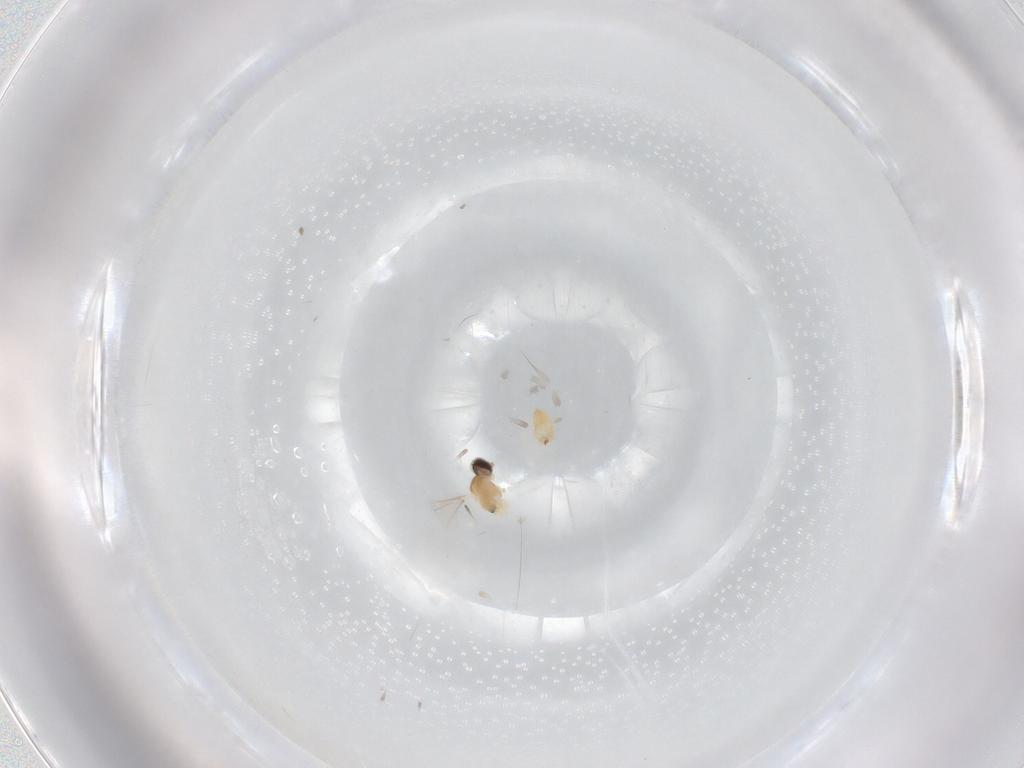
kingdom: Animalia
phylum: Arthropoda
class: Insecta
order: Diptera
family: Cecidomyiidae
